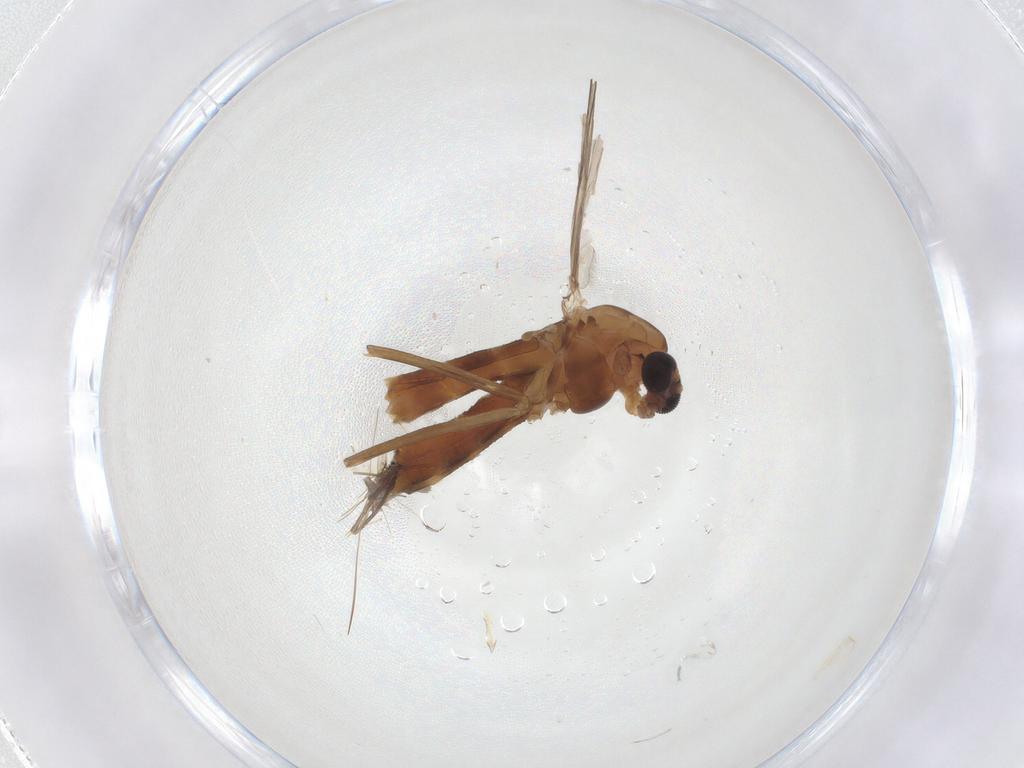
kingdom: Animalia
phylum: Arthropoda
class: Insecta
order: Diptera
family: Chironomidae
